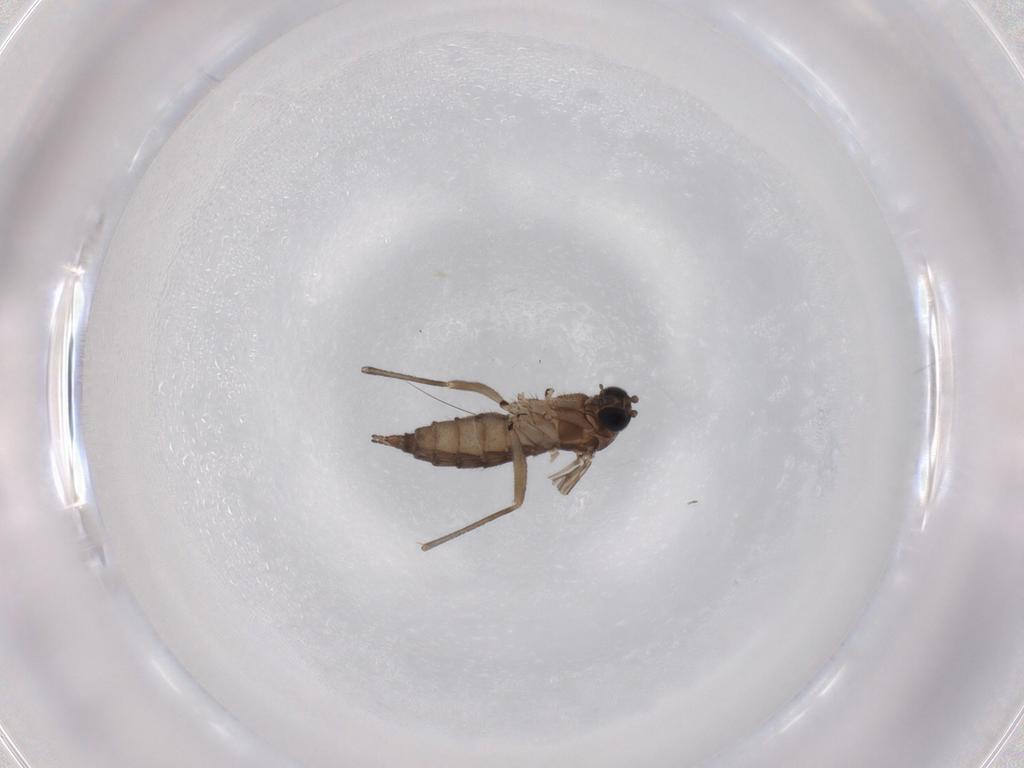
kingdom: Animalia
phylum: Arthropoda
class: Insecta
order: Diptera
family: Sciaridae
